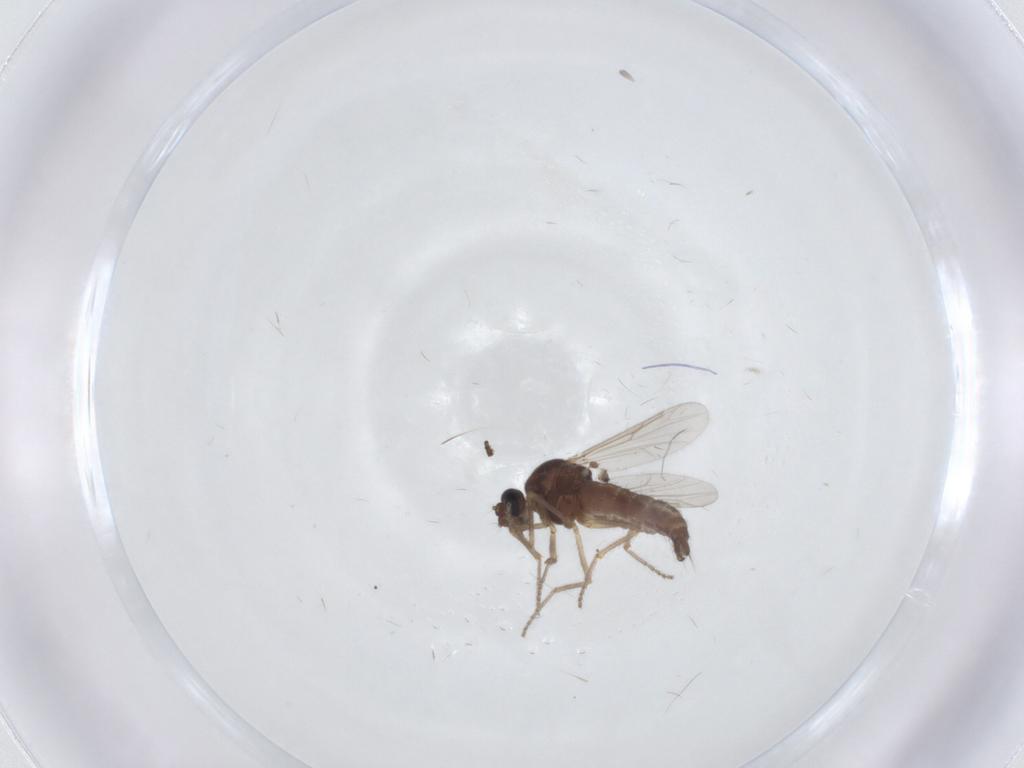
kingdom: Animalia
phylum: Arthropoda
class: Insecta
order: Diptera
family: Ceratopogonidae
